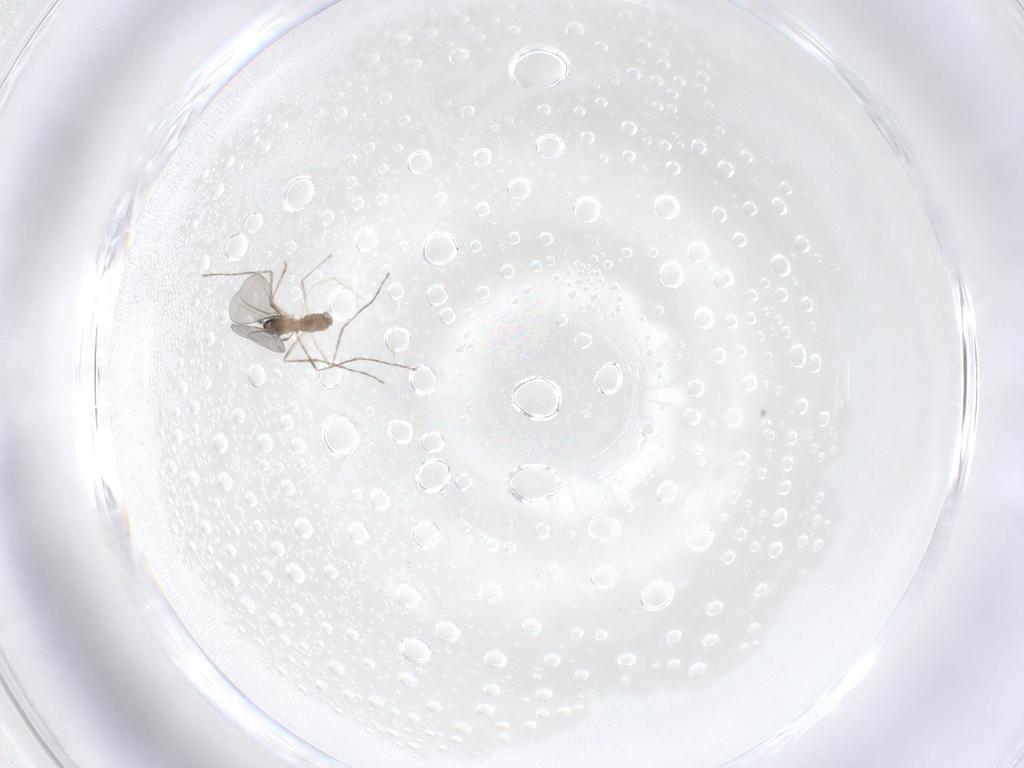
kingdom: Animalia
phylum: Arthropoda
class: Insecta
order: Diptera
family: Cecidomyiidae
